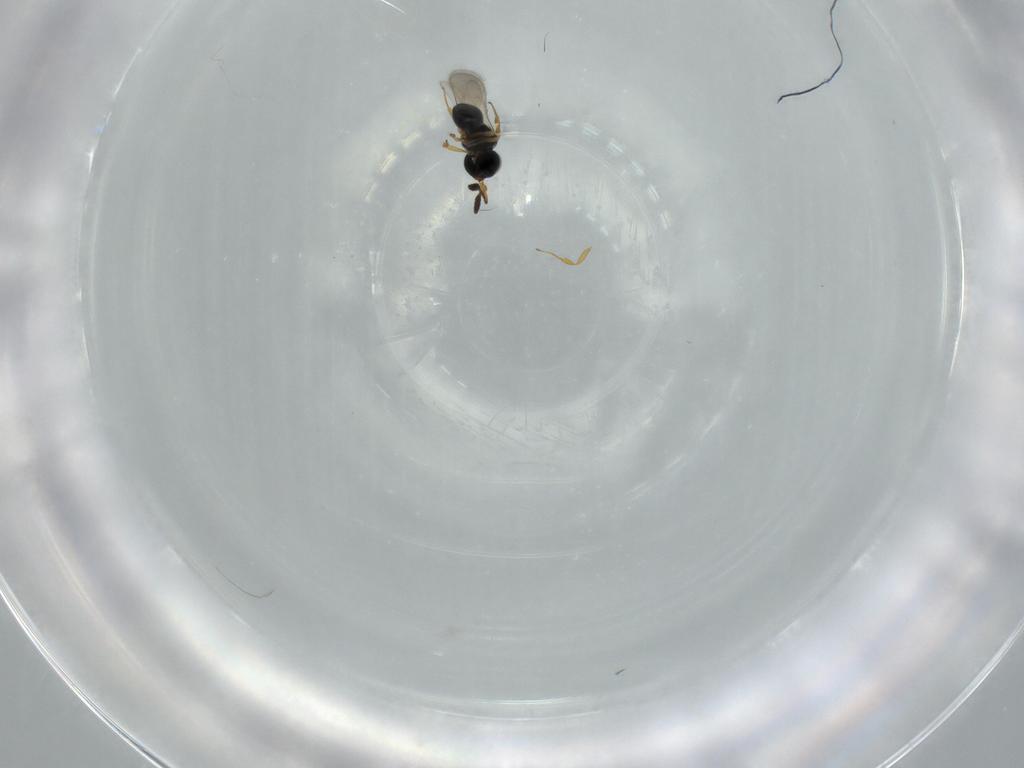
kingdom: Animalia
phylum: Arthropoda
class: Insecta
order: Hymenoptera
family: Scelionidae
